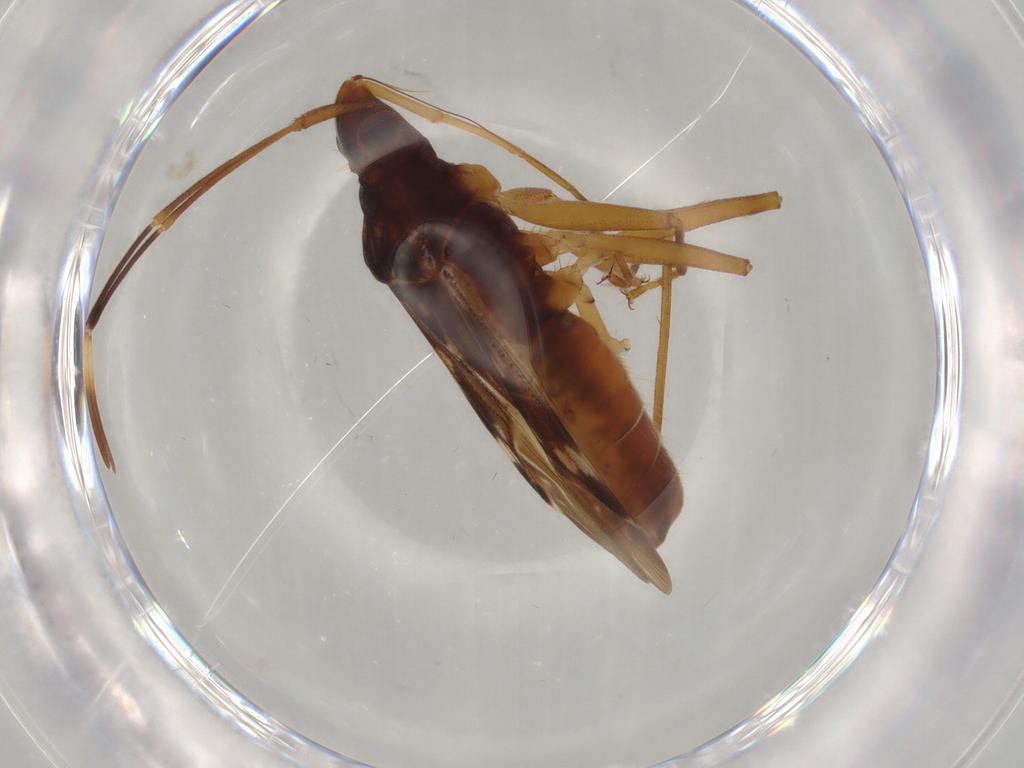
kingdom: Animalia
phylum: Arthropoda
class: Insecta
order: Hemiptera
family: Rhyparochromidae
